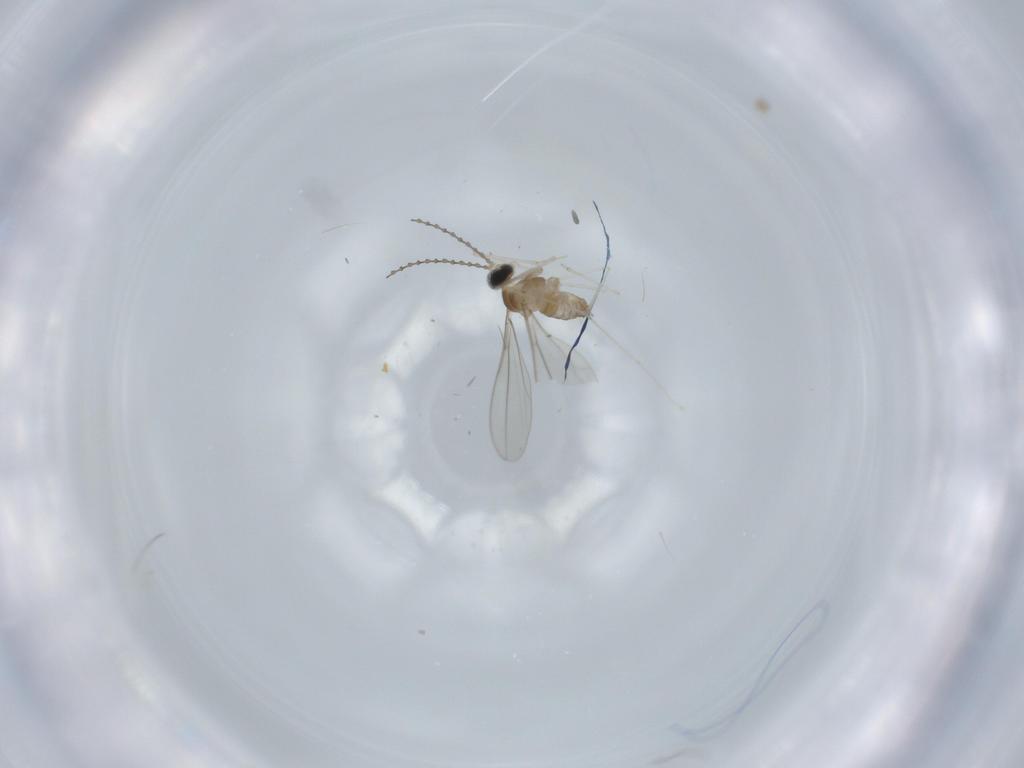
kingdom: Animalia
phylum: Arthropoda
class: Insecta
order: Diptera
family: Cecidomyiidae
